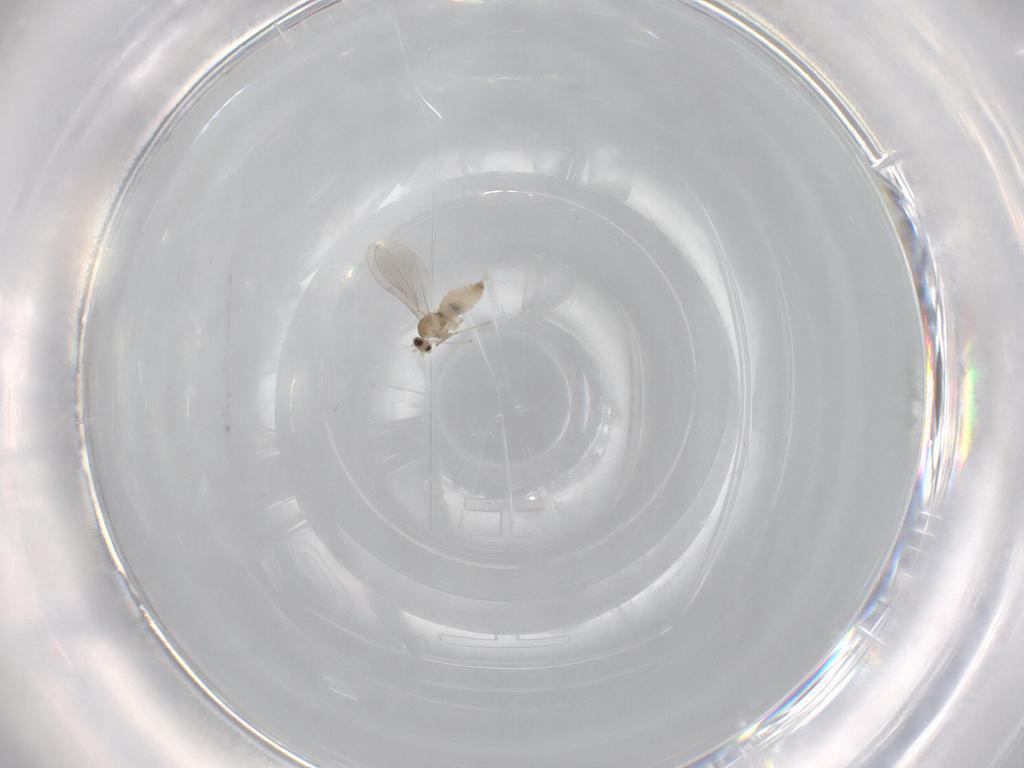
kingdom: Animalia
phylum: Arthropoda
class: Insecta
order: Diptera
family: Cecidomyiidae
